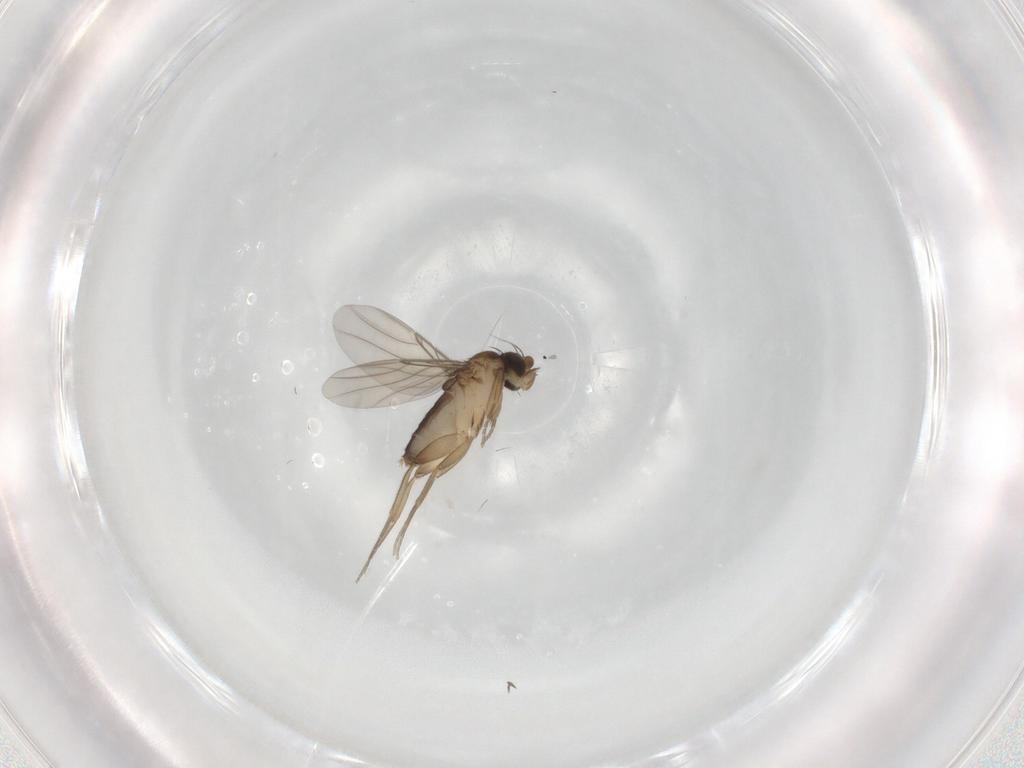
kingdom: Animalia
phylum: Arthropoda
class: Insecta
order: Diptera
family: Phoridae
